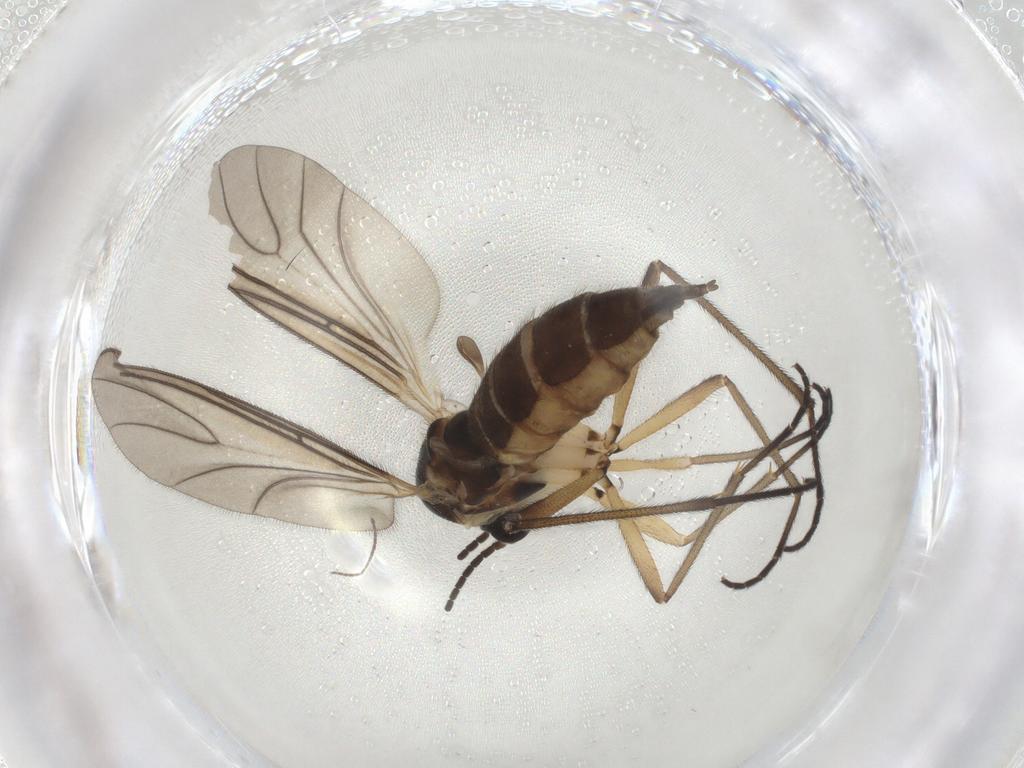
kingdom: Animalia
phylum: Arthropoda
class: Insecta
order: Diptera
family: Sciaridae
